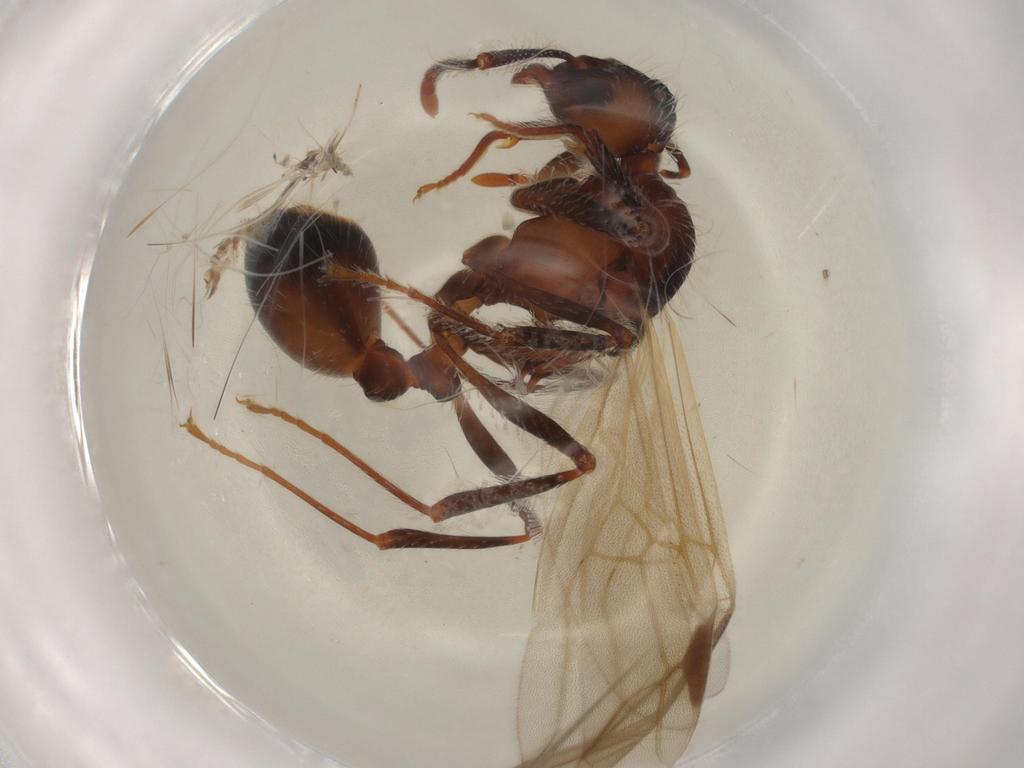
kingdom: Animalia
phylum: Arthropoda
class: Insecta
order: Hymenoptera
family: Formicidae
